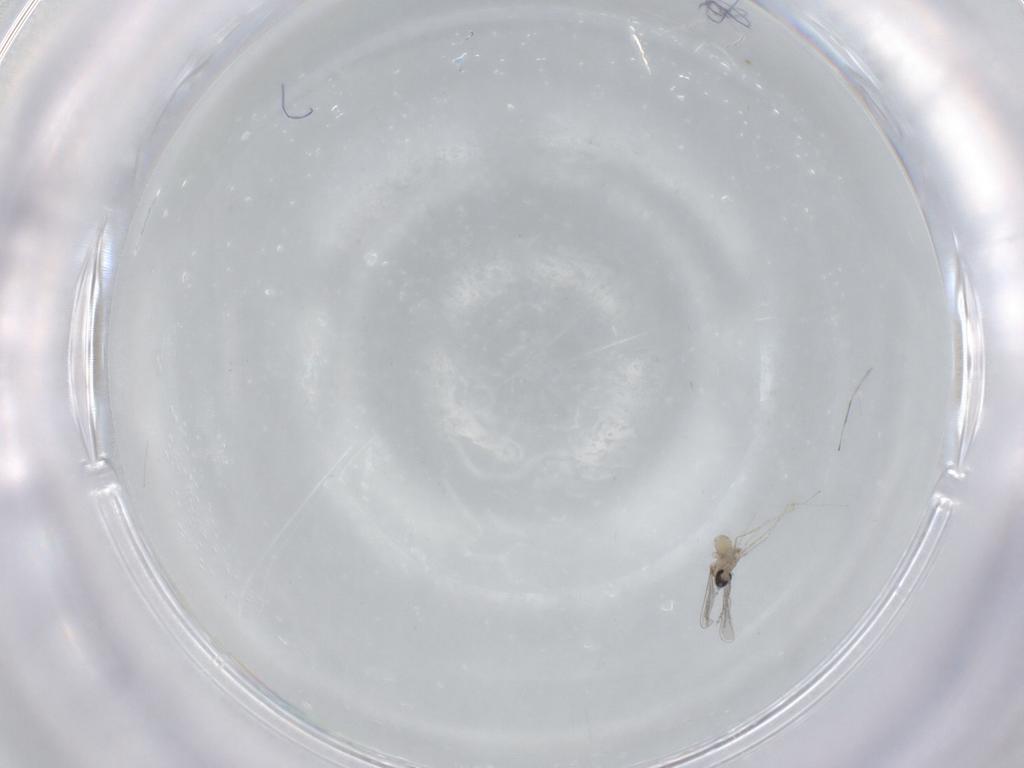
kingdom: Animalia
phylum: Arthropoda
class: Insecta
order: Diptera
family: Cecidomyiidae
